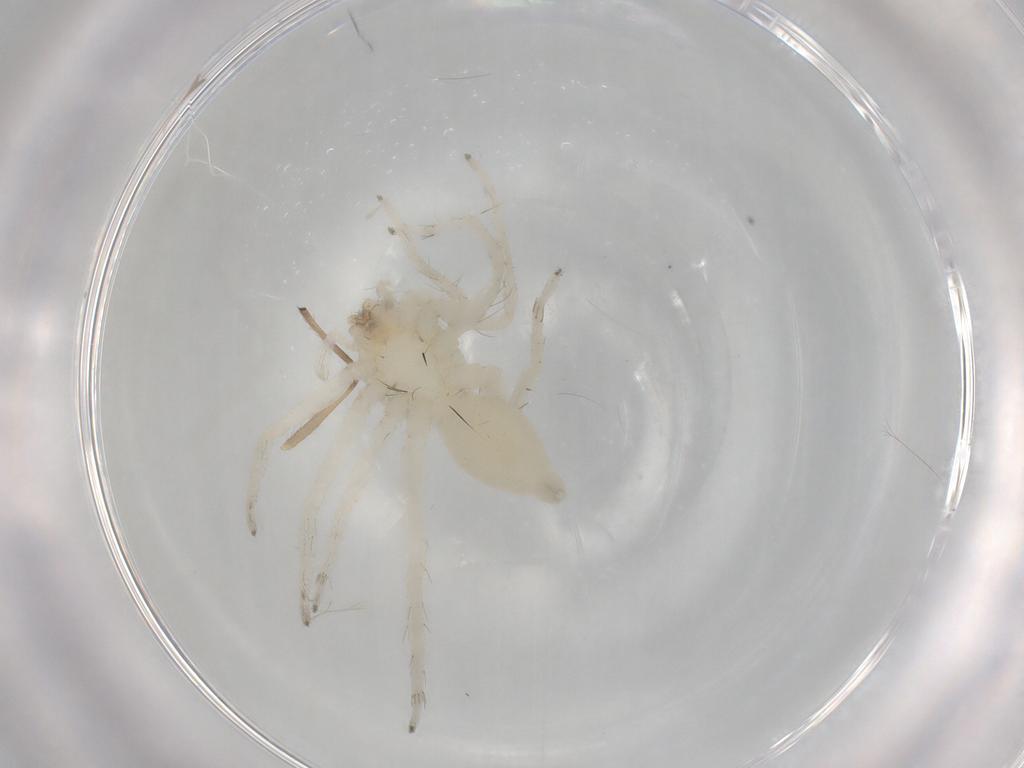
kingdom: Animalia
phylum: Arthropoda
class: Arachnida
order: Araneae
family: Clubionidae
